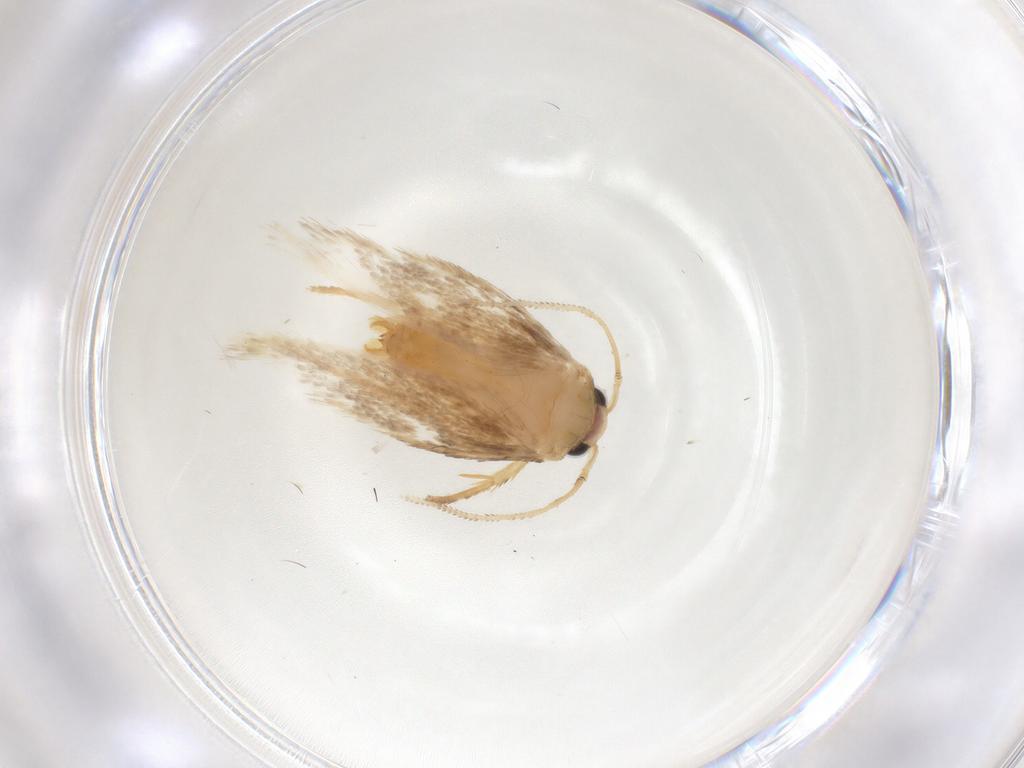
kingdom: Animalia
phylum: Arthropoda
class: Insecta
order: Lepidoptera
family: Nepticulidae
